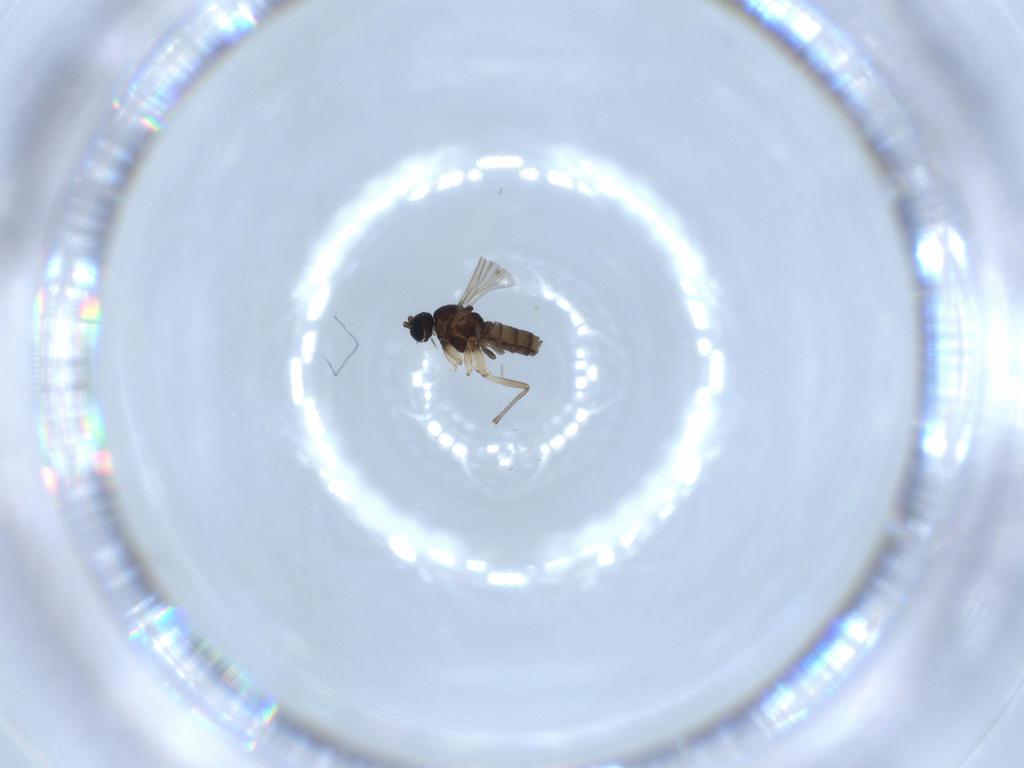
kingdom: Animalia
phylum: Arthropoda
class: Insecta
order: Diptera
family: Sciaridae
